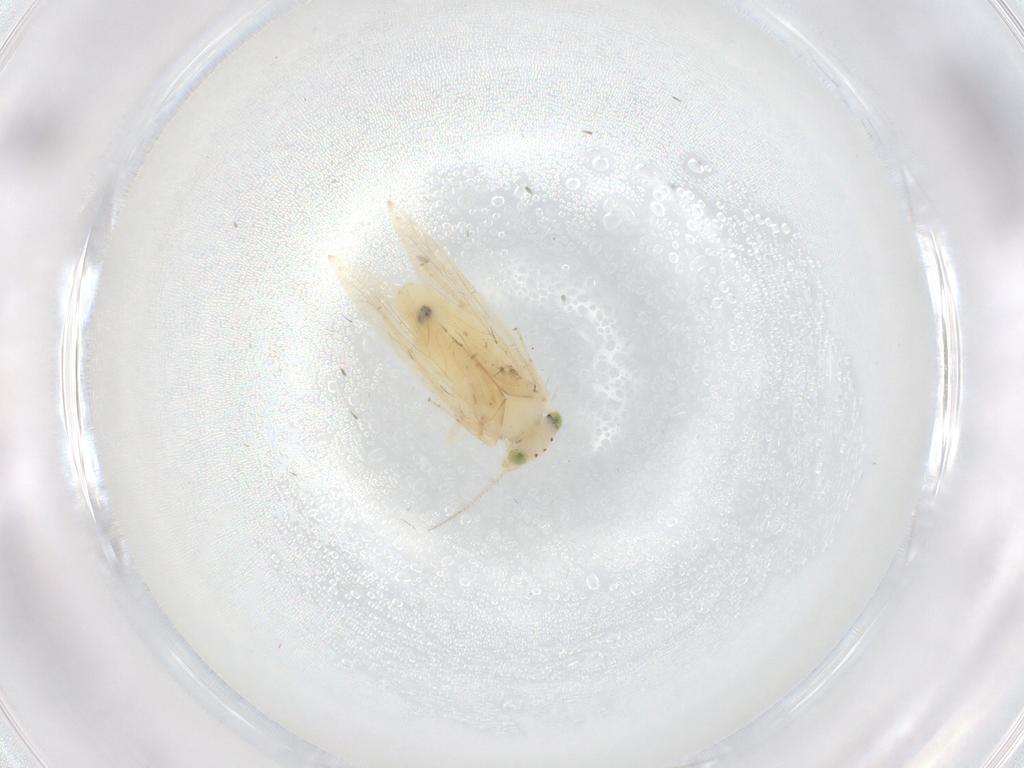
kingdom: Animalia
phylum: Arthropoda
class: Insecta
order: Psocodea
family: Lepidopsocidae
